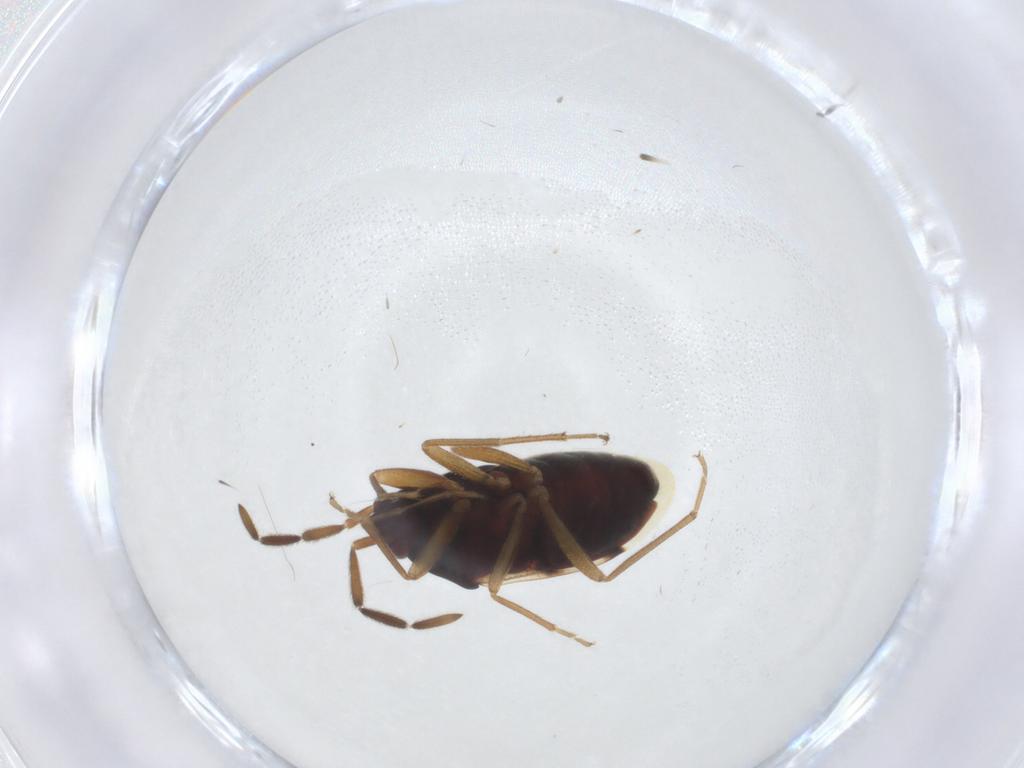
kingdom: Animalia
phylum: Arthropoda
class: Insecta
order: Hemiptera
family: Rhyparochromidae
